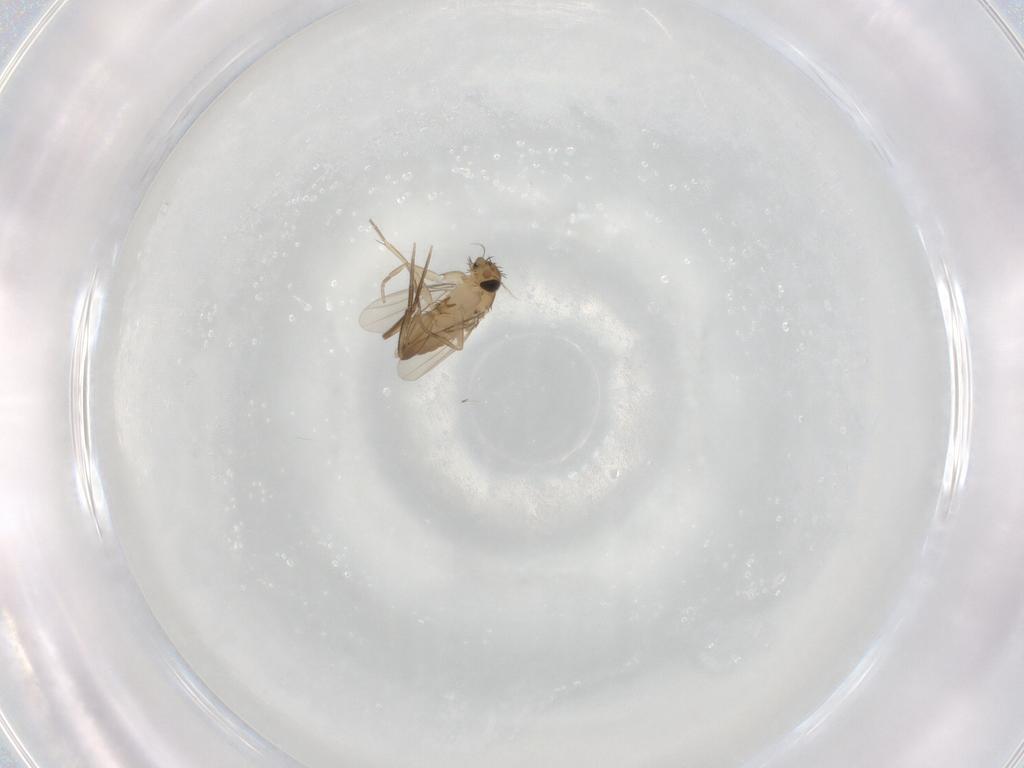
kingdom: Animalia
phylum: Arthropoda
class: Insecta
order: Diptera
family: Phoridae
